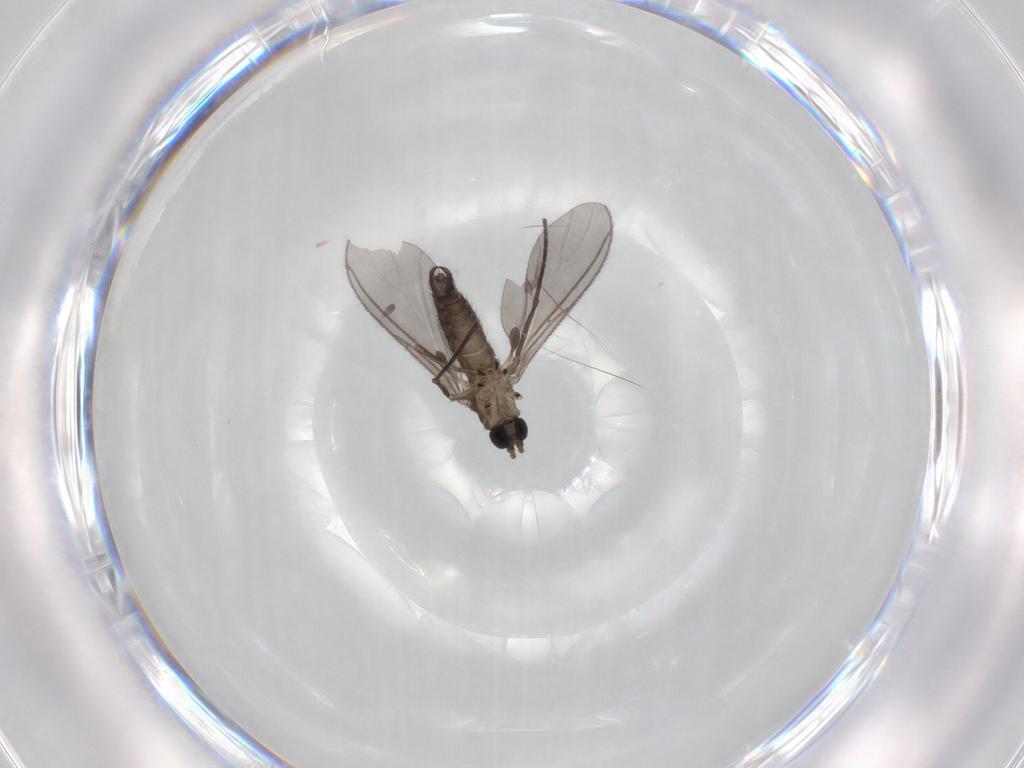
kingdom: Animalia
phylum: Arthropoda
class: Insecta
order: Diptera
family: Sciaridae
